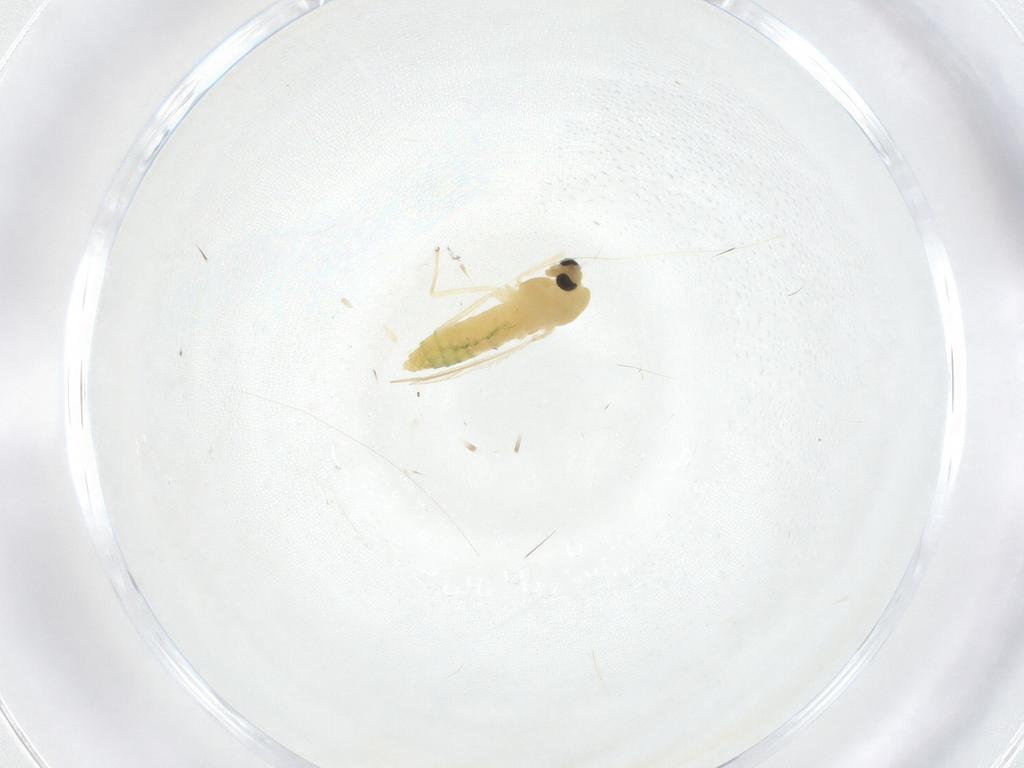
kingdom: Animalia
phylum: Arthropoda
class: Insecta
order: Diptera
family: Chironomidae
